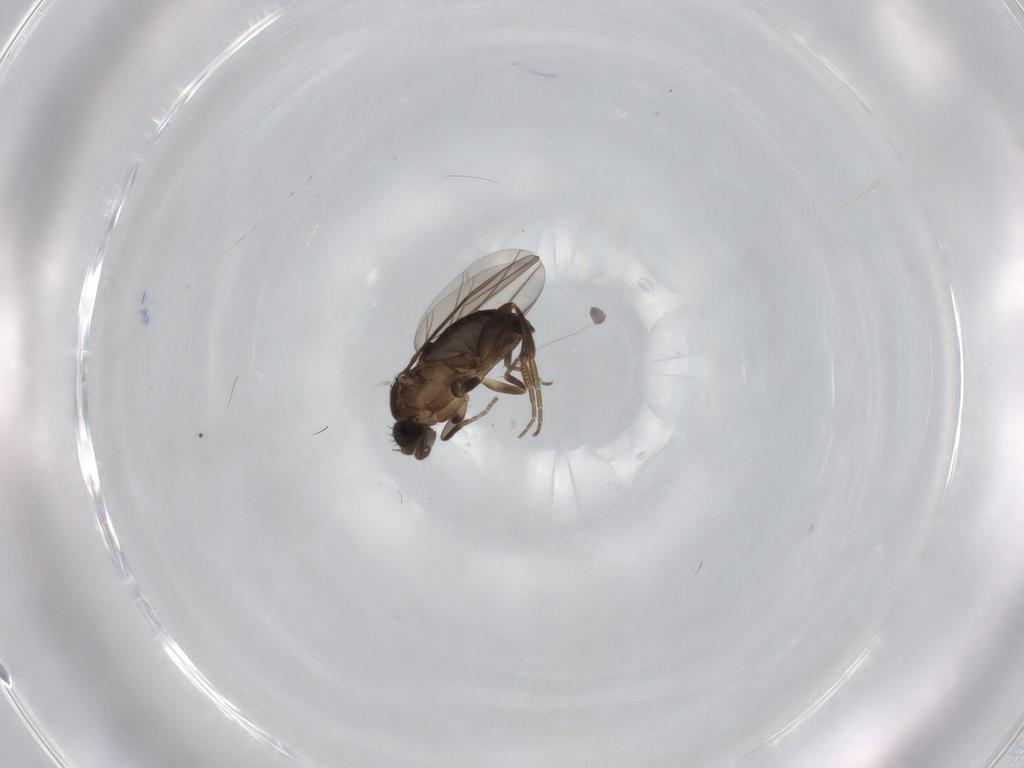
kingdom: Animalia
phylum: Arthropoda
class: Insecta
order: Diptera
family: Phoridae
